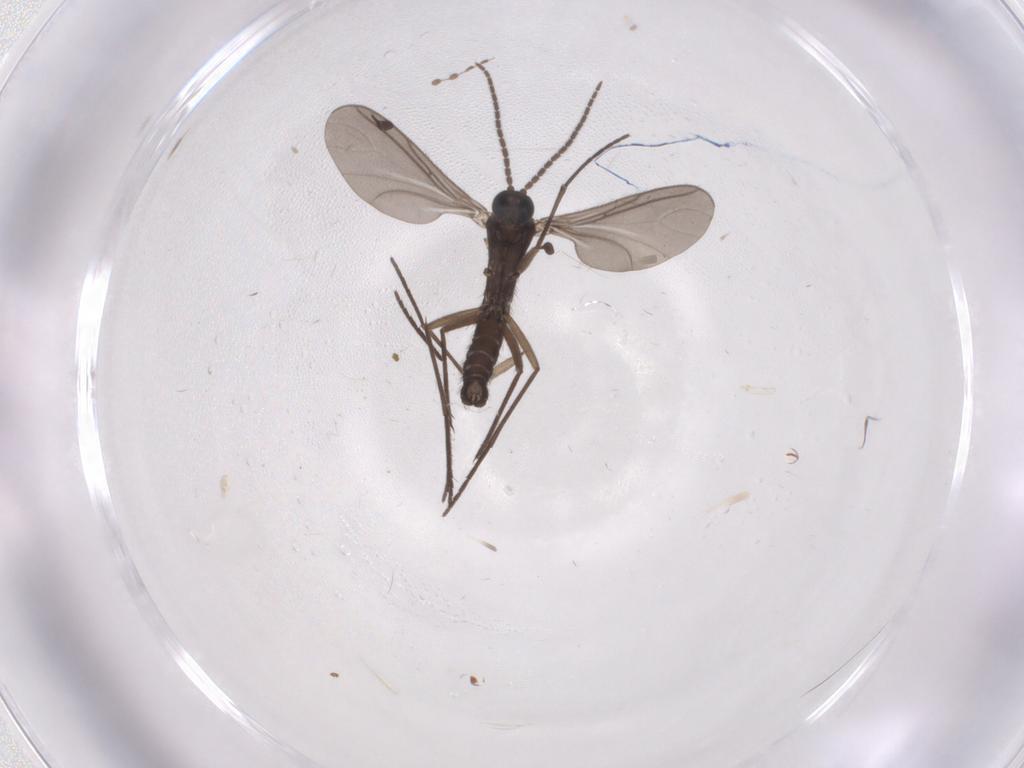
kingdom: Animalia
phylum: Arthropoda
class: Insecta
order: Diptera
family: Sciaridae
